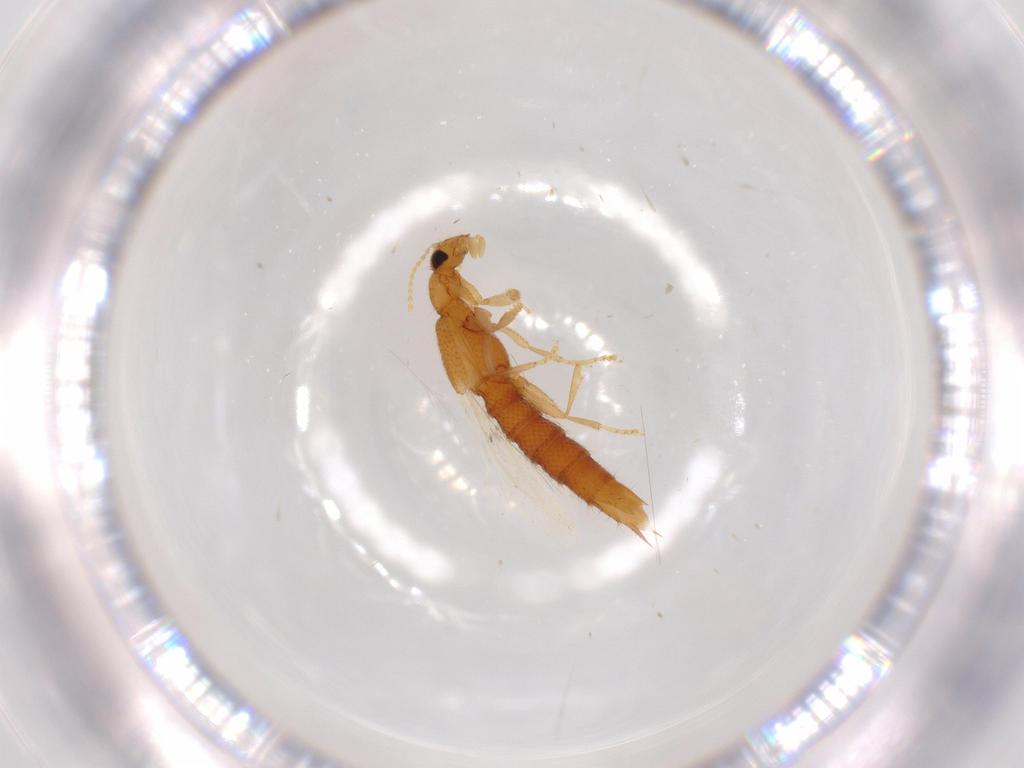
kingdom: Animalia
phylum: Arthropoda
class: Insecta
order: Coleoptera
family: Staphylinidae
